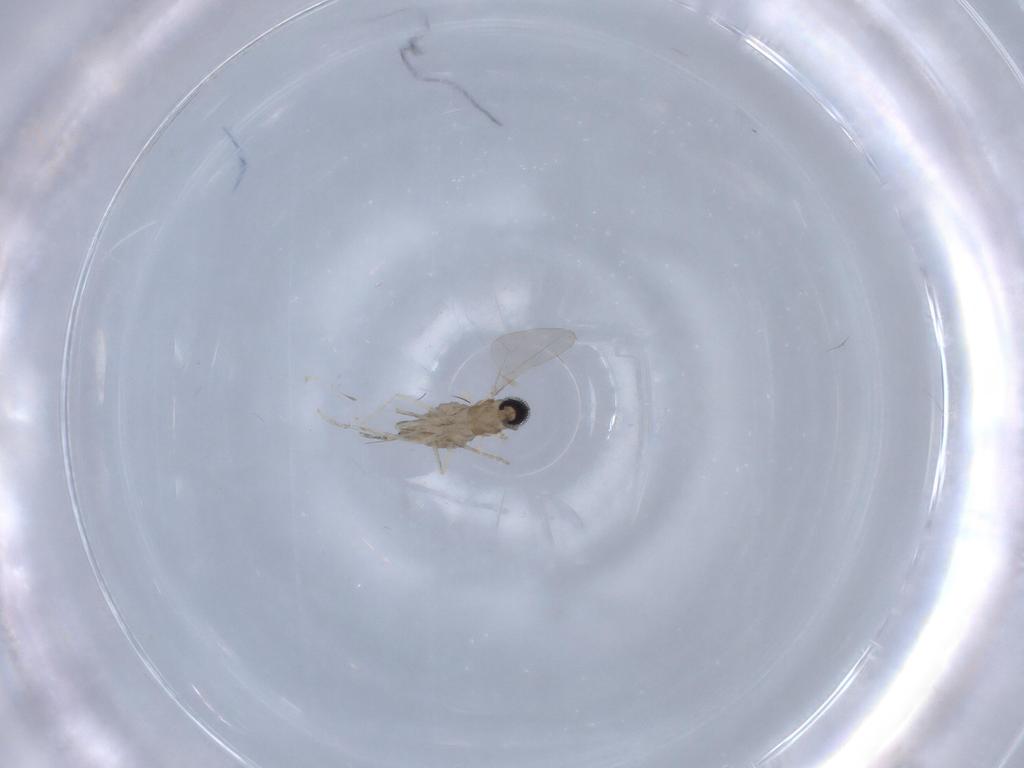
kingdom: Animalia
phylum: Arthropoda
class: Insecta
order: Diptera
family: Cecidomyiidae
